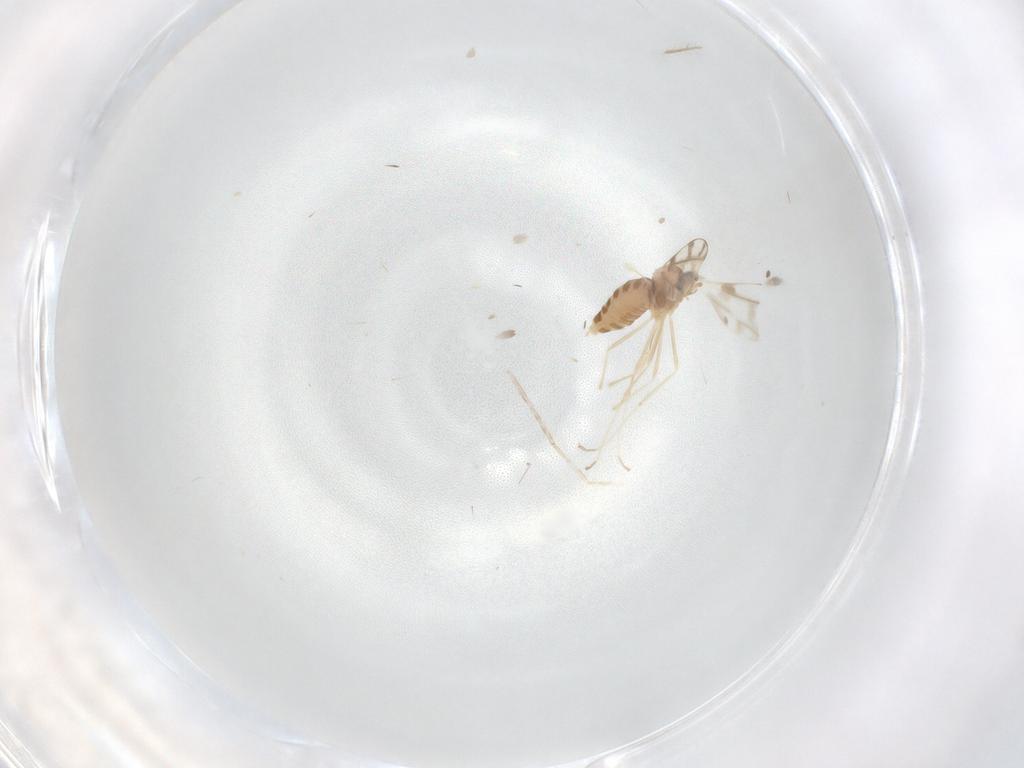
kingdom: Animalia
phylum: Arthropoda
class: Insecta
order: Diptera
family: Cecidomyiidae
